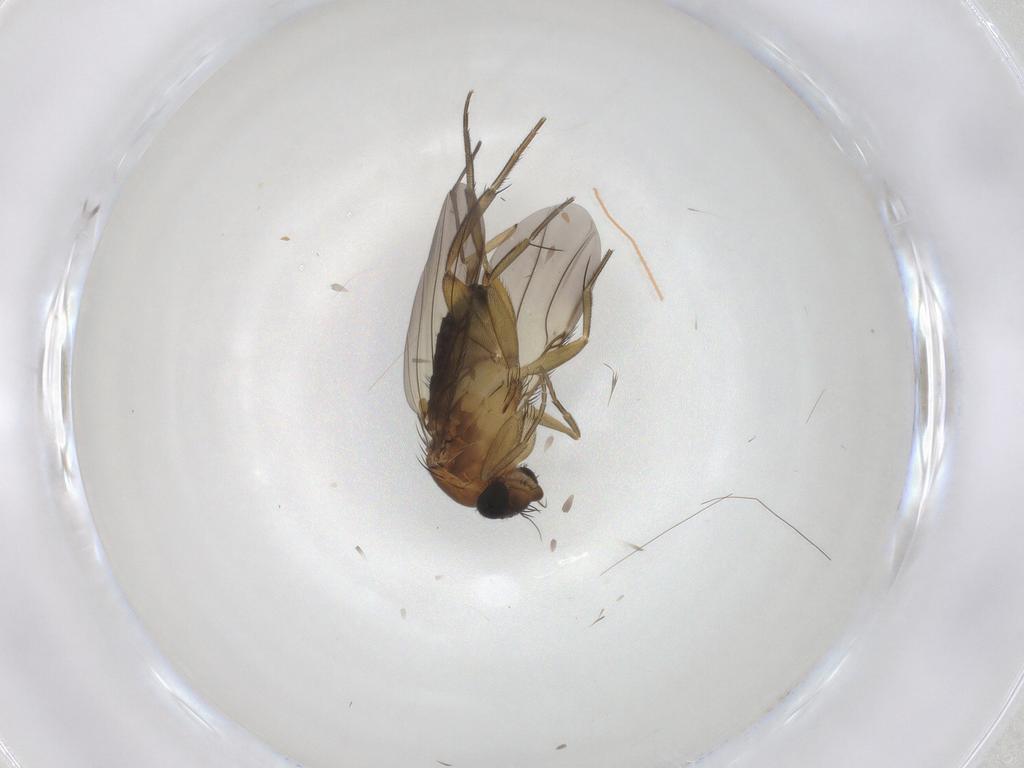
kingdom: Animalia
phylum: Arthropoda
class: Insecta
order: Diptera
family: Phoridae
